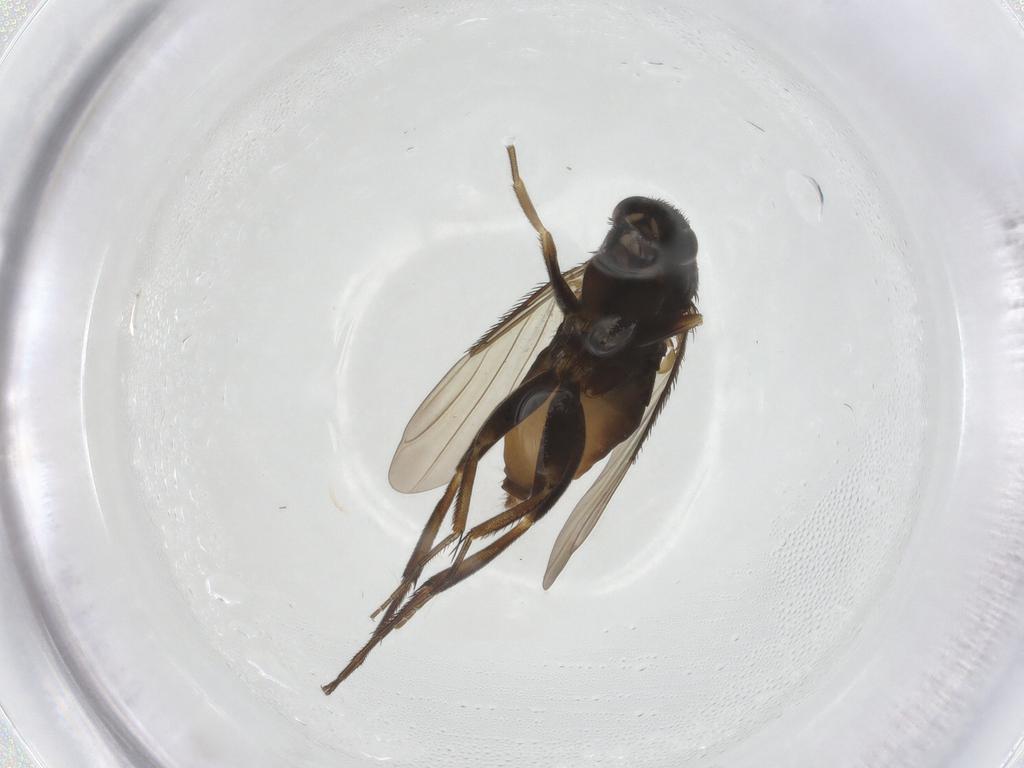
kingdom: Animalia
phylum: Arthropoda
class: Insecta
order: Diptera
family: Phoridae
